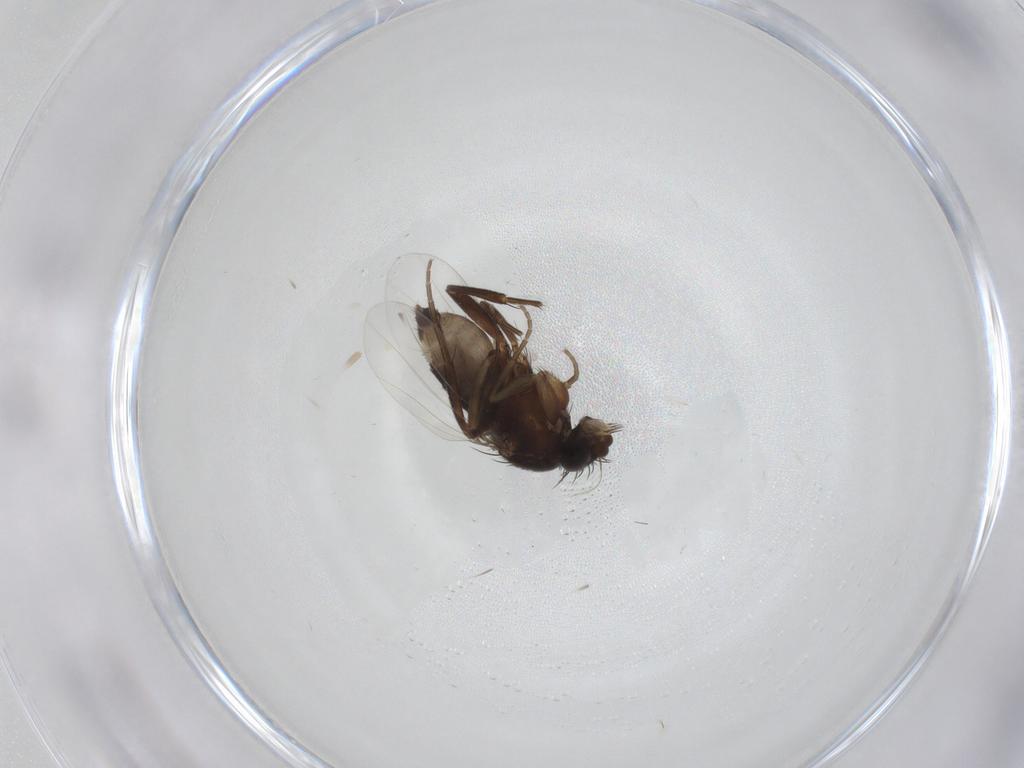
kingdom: Animalia
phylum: Arthropoda
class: Insecta
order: Diptera
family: Phoridae
